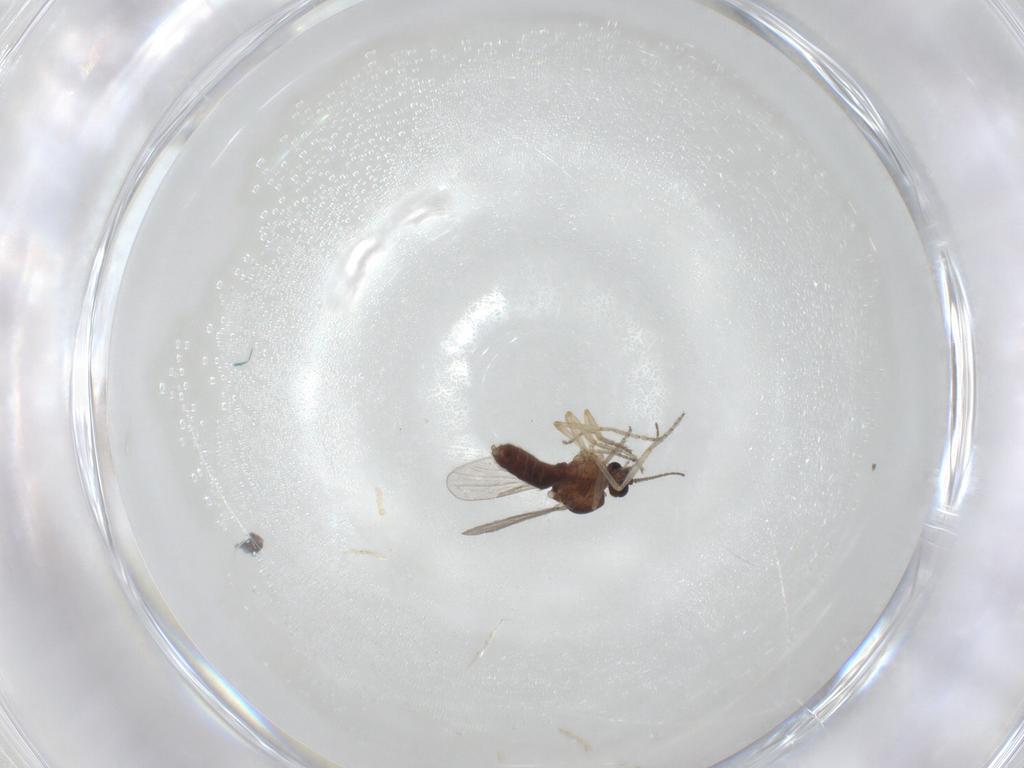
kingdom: Animalia
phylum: Arthropoda
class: Insecta
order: Diptera
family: Ceratopogonidae
